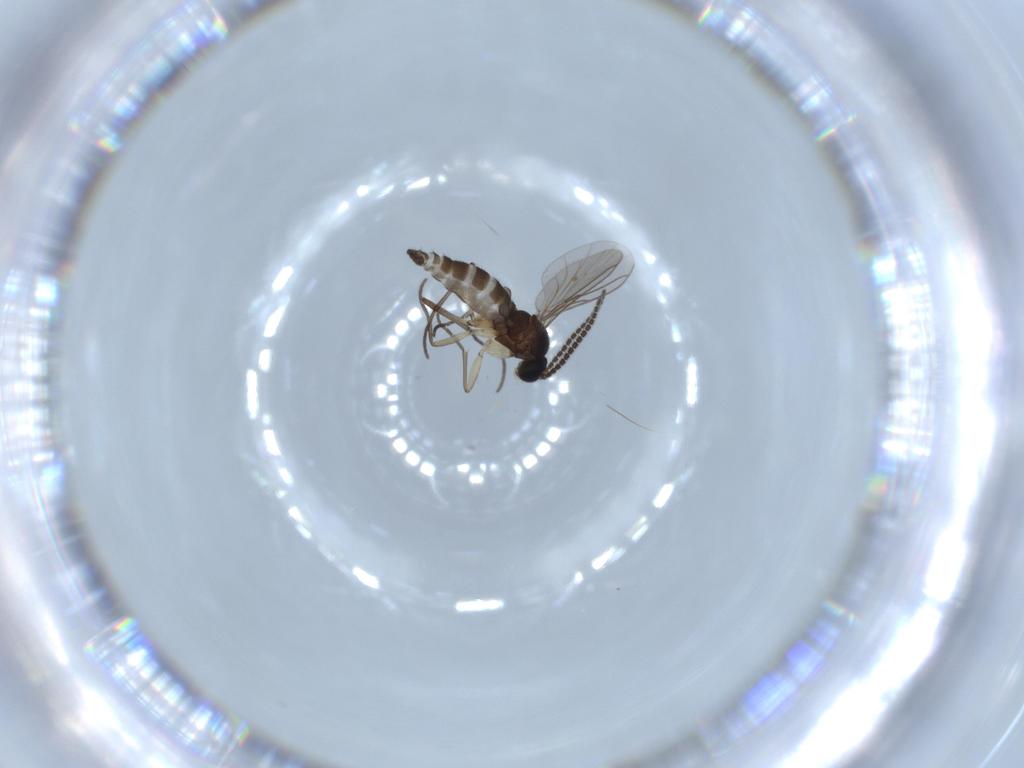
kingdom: Animalia
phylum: Arthropoda
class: Insecta
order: Diptera
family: Sciaridae
